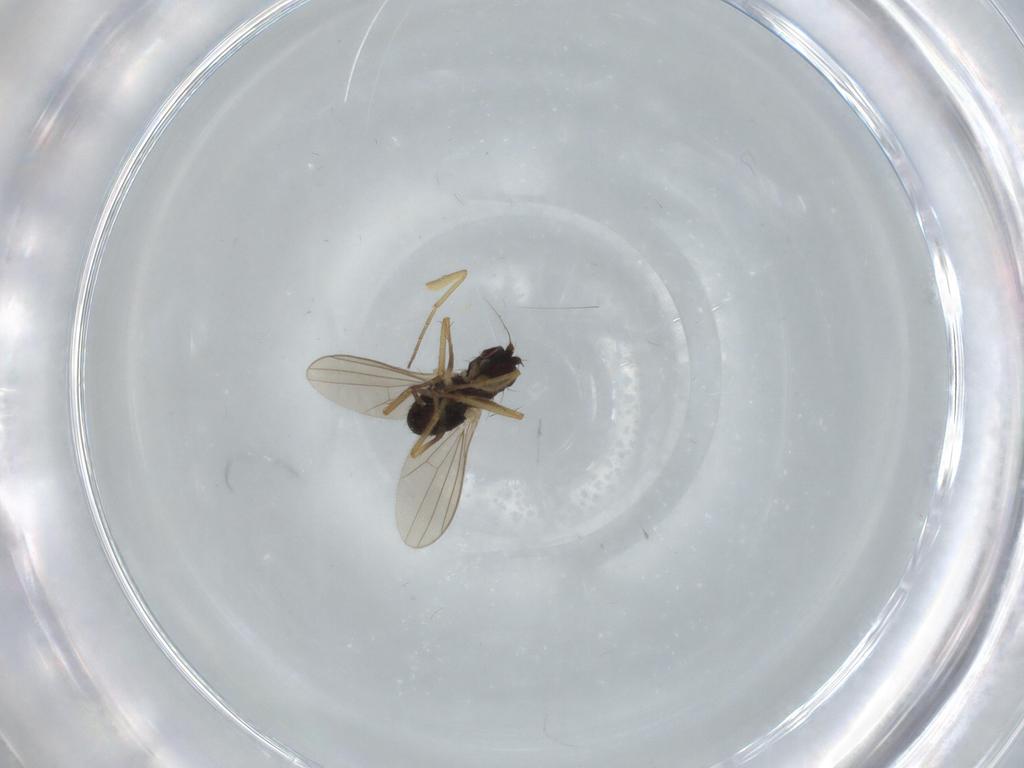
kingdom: Animalia
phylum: Arthropoda
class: Insecta
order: Diptera
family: Dolichopodidae
